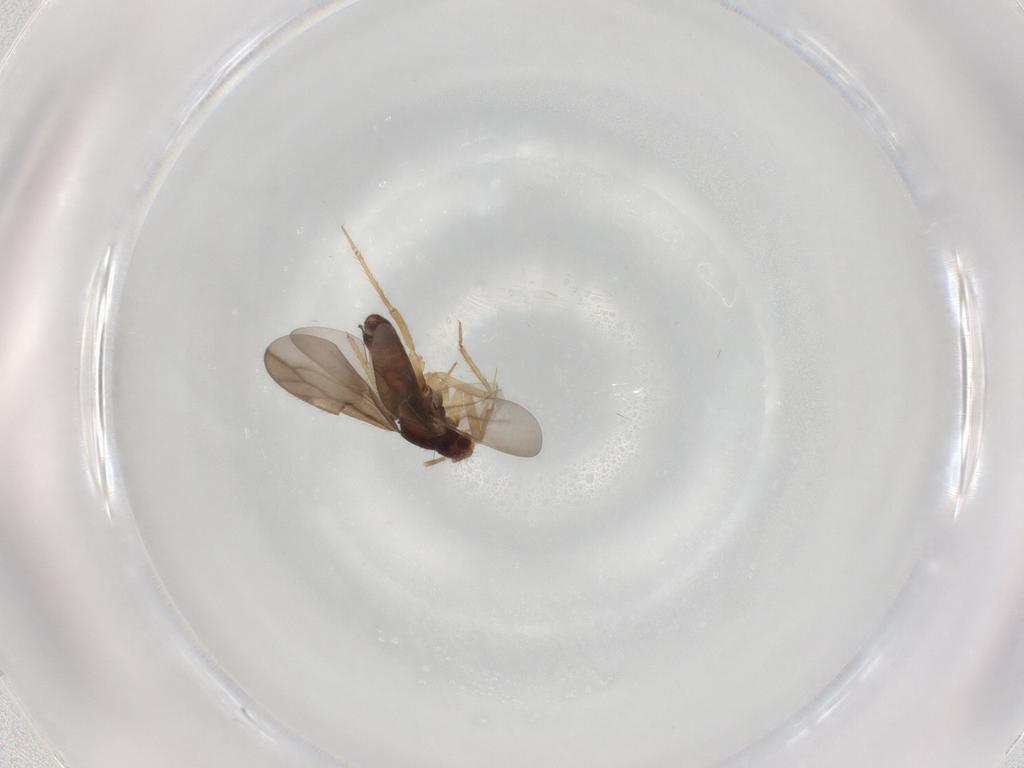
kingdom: Animalia
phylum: Arthropoda
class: Insecta
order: Hemiptera
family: Ceratocombidae
